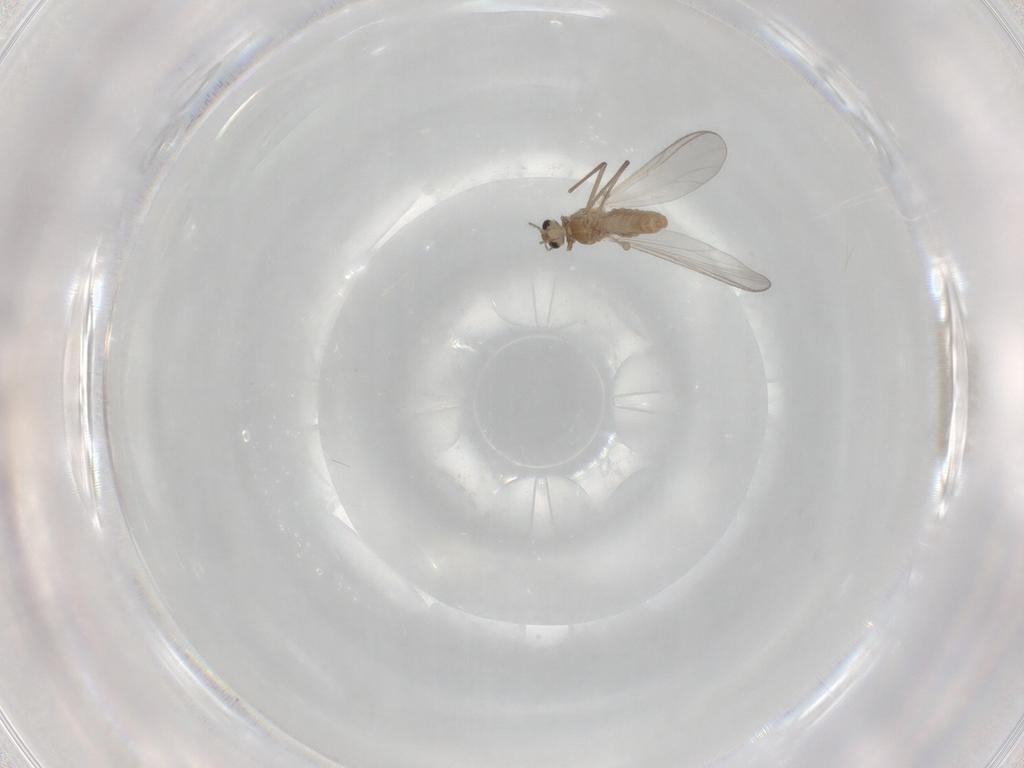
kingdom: Animalia
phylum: Arthropoda
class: Insecta
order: Diptera
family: Chironomidae
